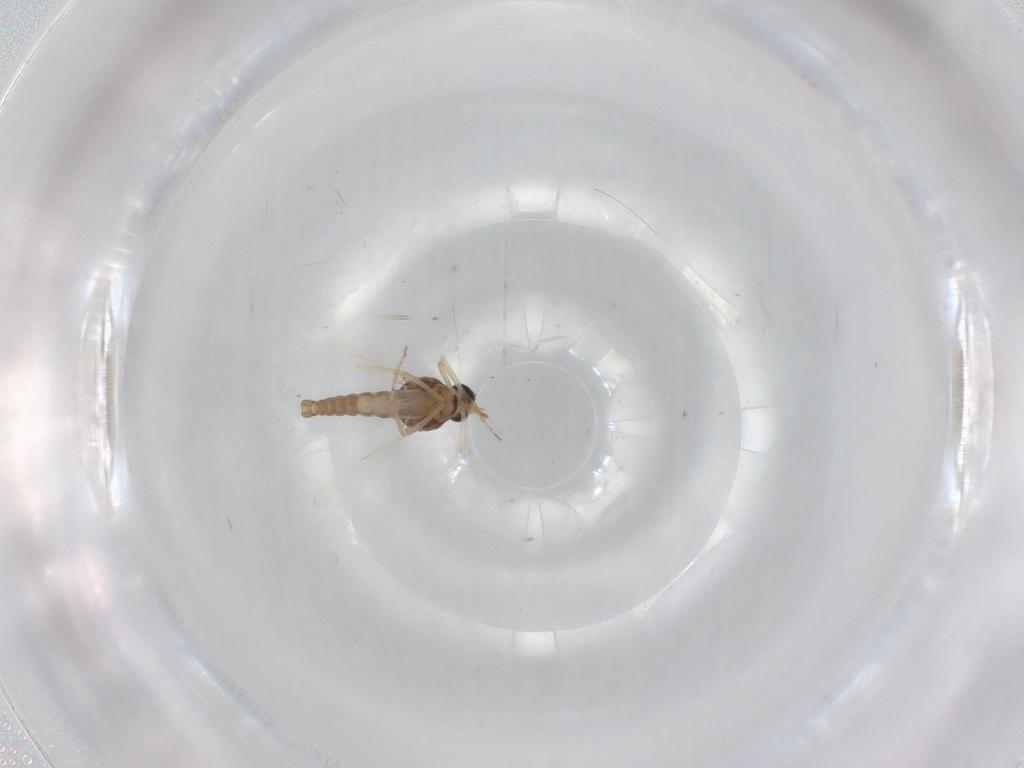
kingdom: Animalia
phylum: Arthropoda
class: Insecta
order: Diptera
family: Ceratopogonidae
